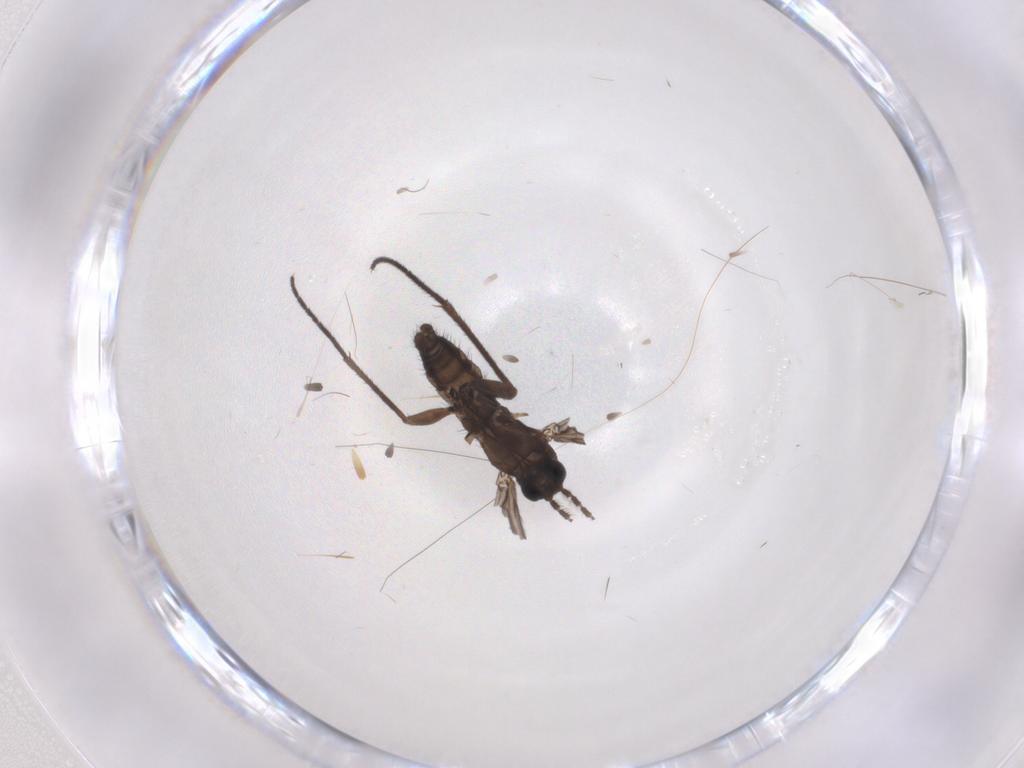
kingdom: Animalia
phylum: Arthropoda
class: Insecta
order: Diptera
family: Sciaridae
